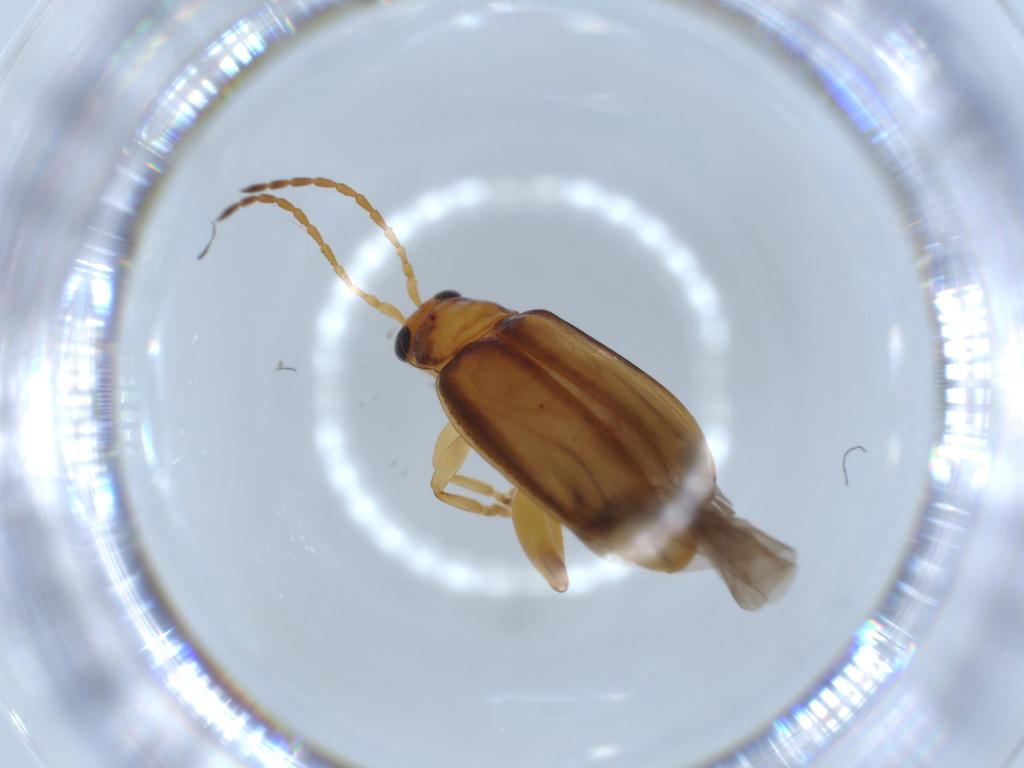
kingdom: Animalia
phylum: Arthropoda
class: Insecta
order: Coleoptera
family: Chrysomelidae
